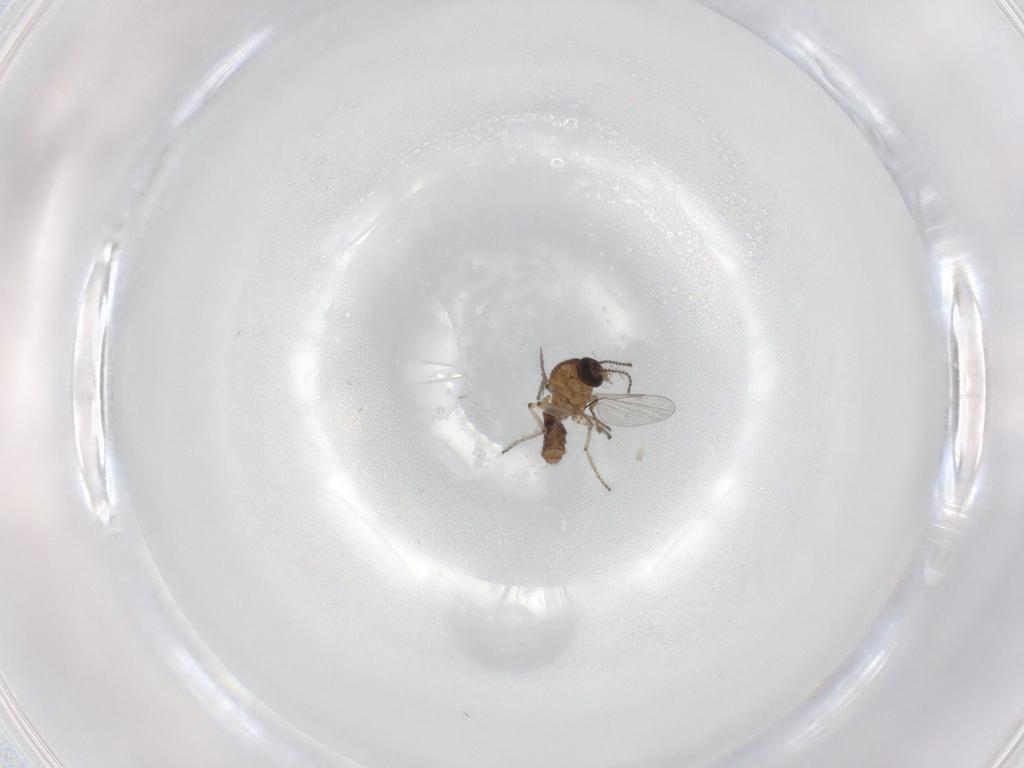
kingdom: Animalia
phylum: Arthropoda
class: Insecta
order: Diptera
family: Ceratopogonidae
